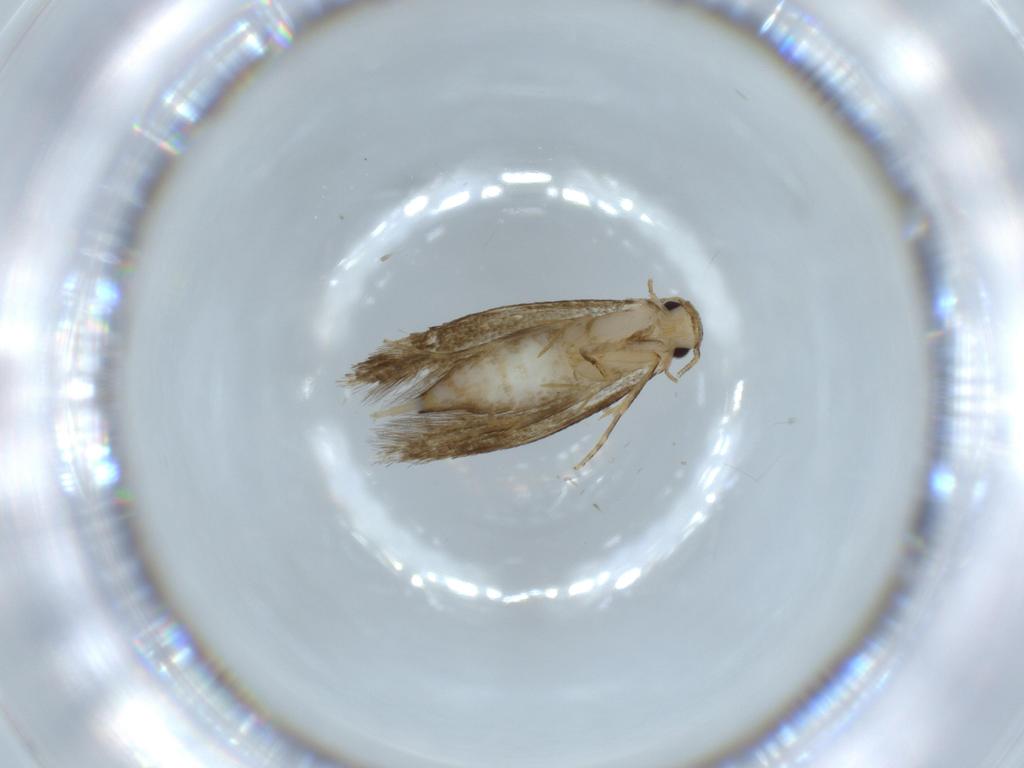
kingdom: Animalia
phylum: Arthropoda
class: Insecta
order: Lepidoptera
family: Tineidae
